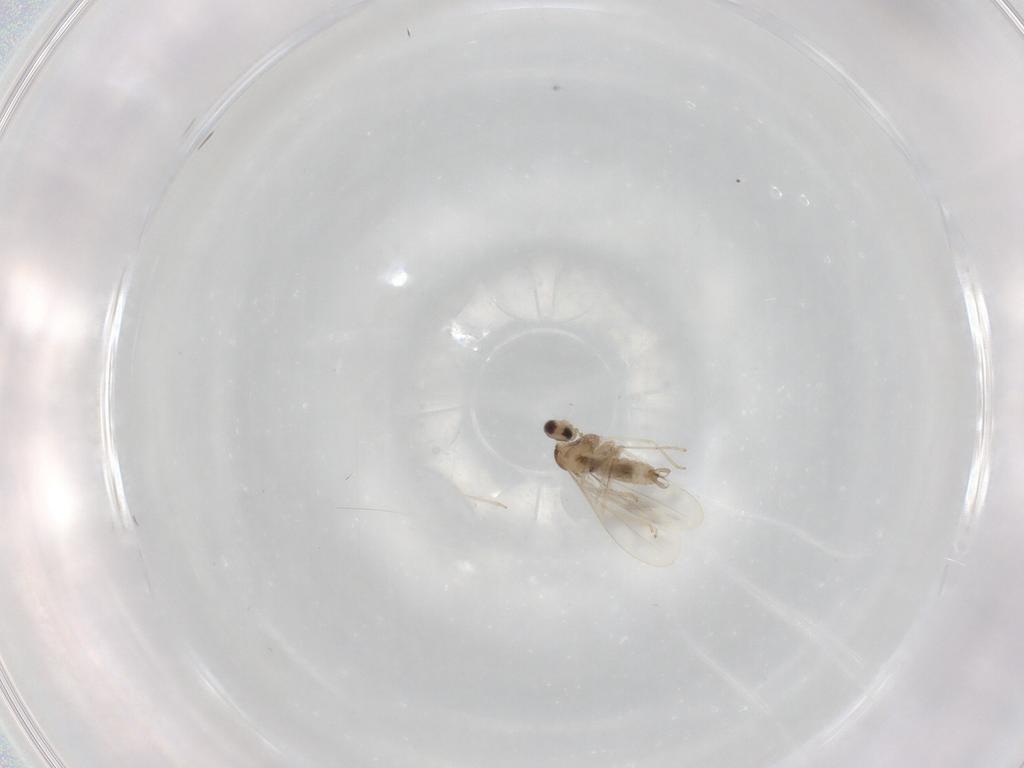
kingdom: Animalia
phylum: Arthropoda
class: Insecta
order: Diptera
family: Cecidomyiidae
